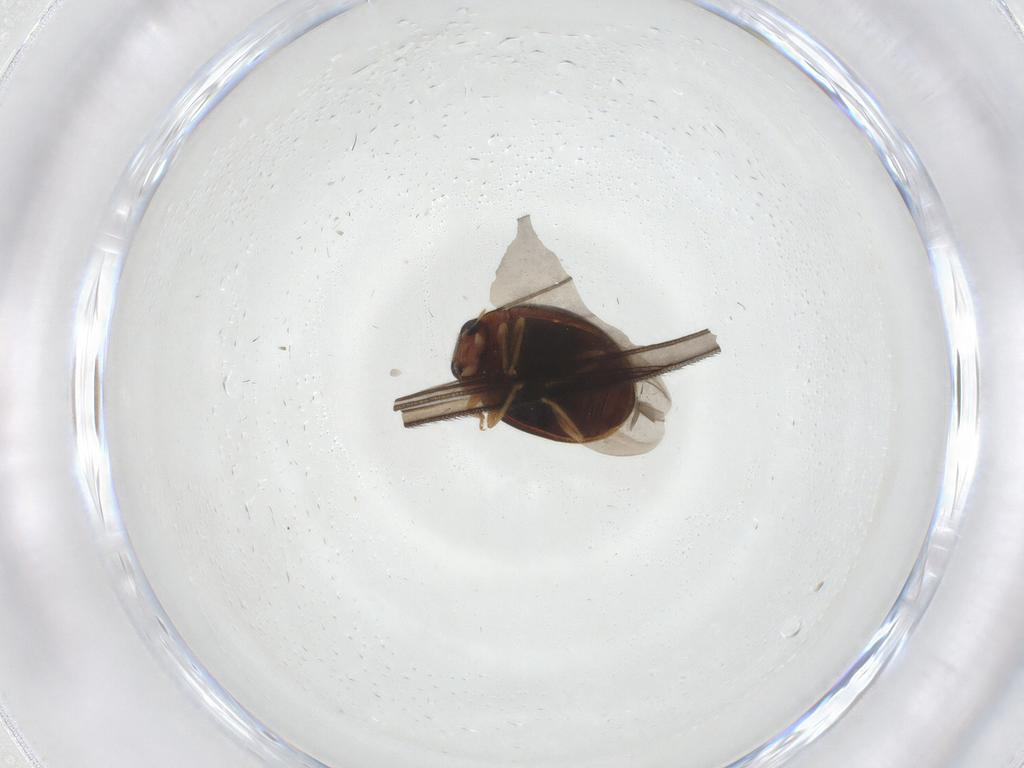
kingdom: Animalia
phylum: Arthropoda
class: Insecta
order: Coleoptera
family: Coccinellidae
